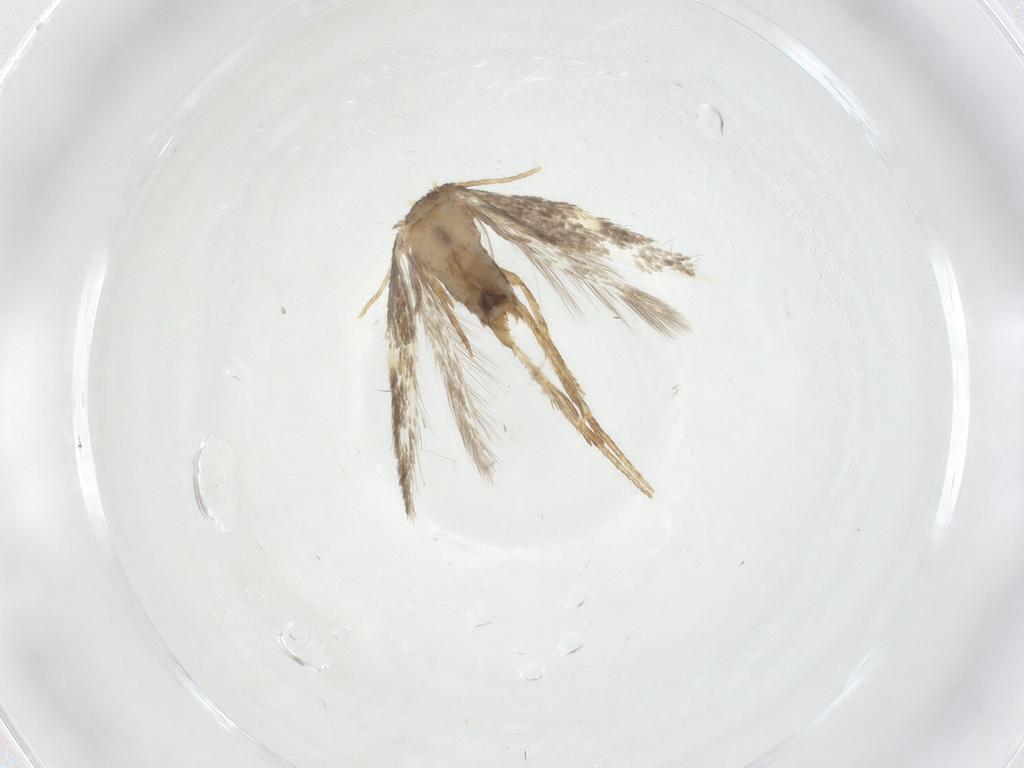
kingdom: Animalia
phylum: Arthropoda
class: Insecta
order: Lepidoptera
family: Nepticulidae
